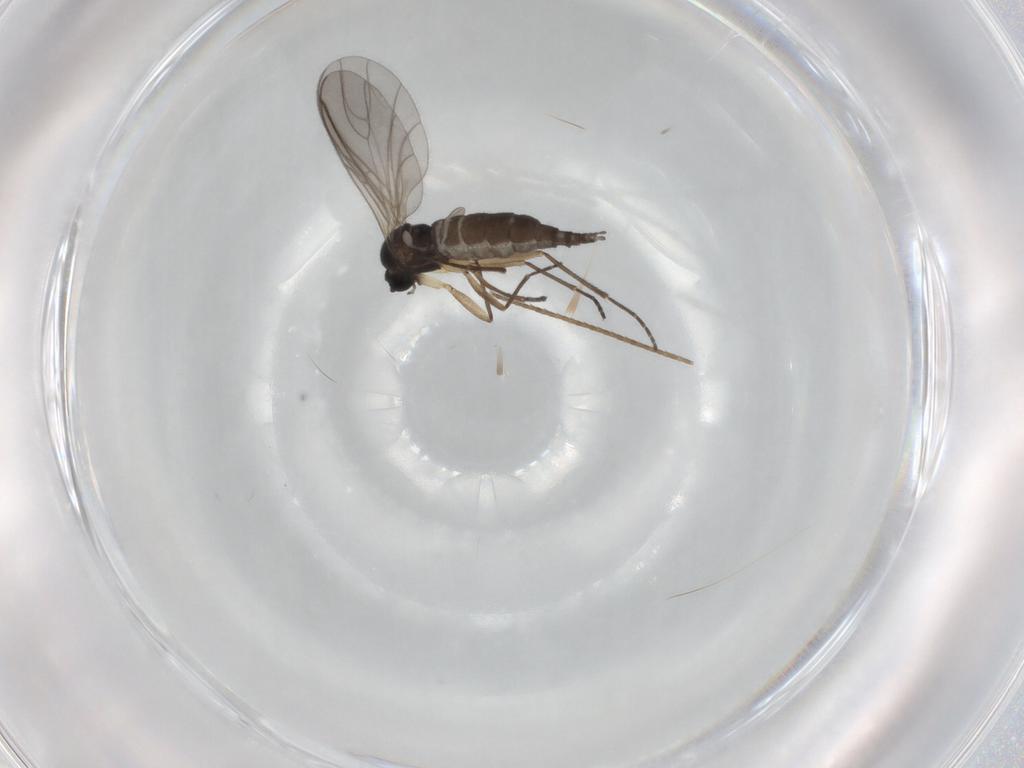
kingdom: Animalia
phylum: Arthropoda
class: Insecta
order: Diptera
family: Sciaridae
